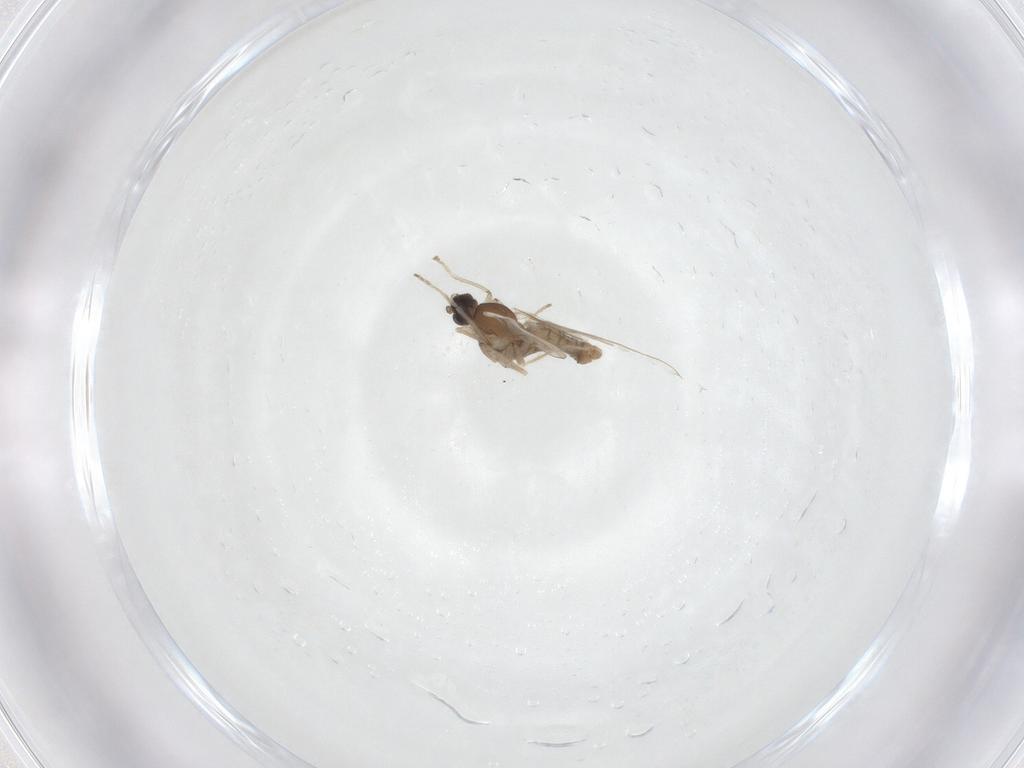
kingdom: Animalia
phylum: Arthropoda
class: Insecta
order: Diptera
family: Cecidomyiidae
